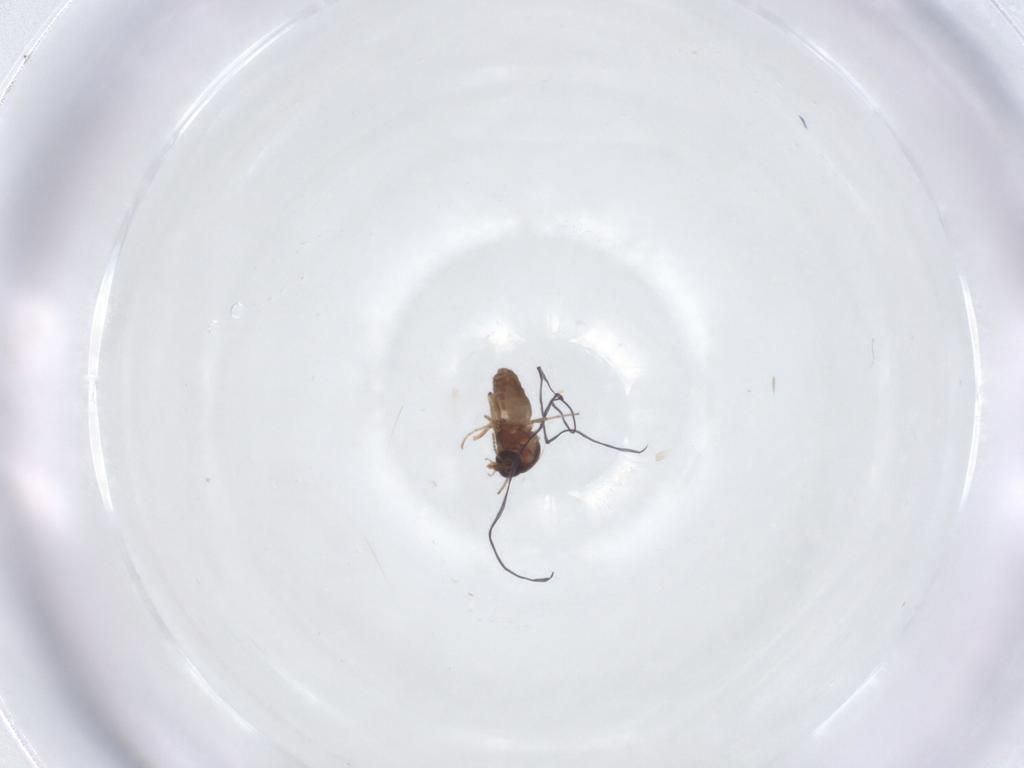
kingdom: Animalia
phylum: Arthropoda
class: Insecta
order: Diptera
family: Ceratopogonidae
